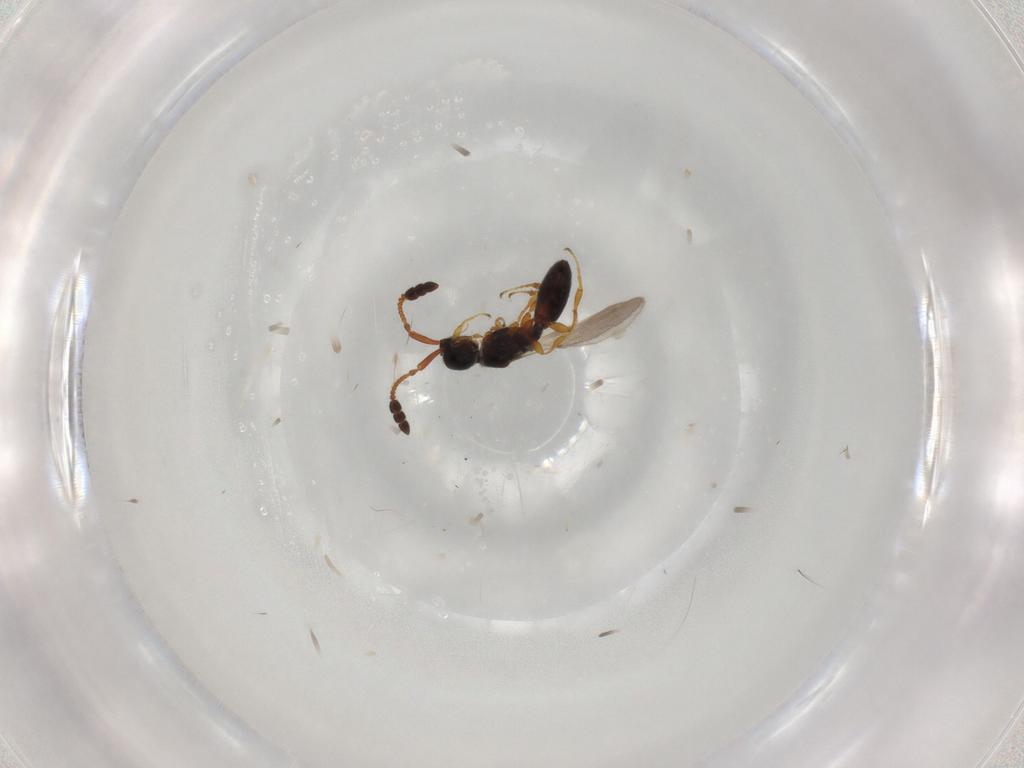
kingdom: Animalia
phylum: Arthropoda
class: Insecta
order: Hymenoptera
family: Diapriidae
